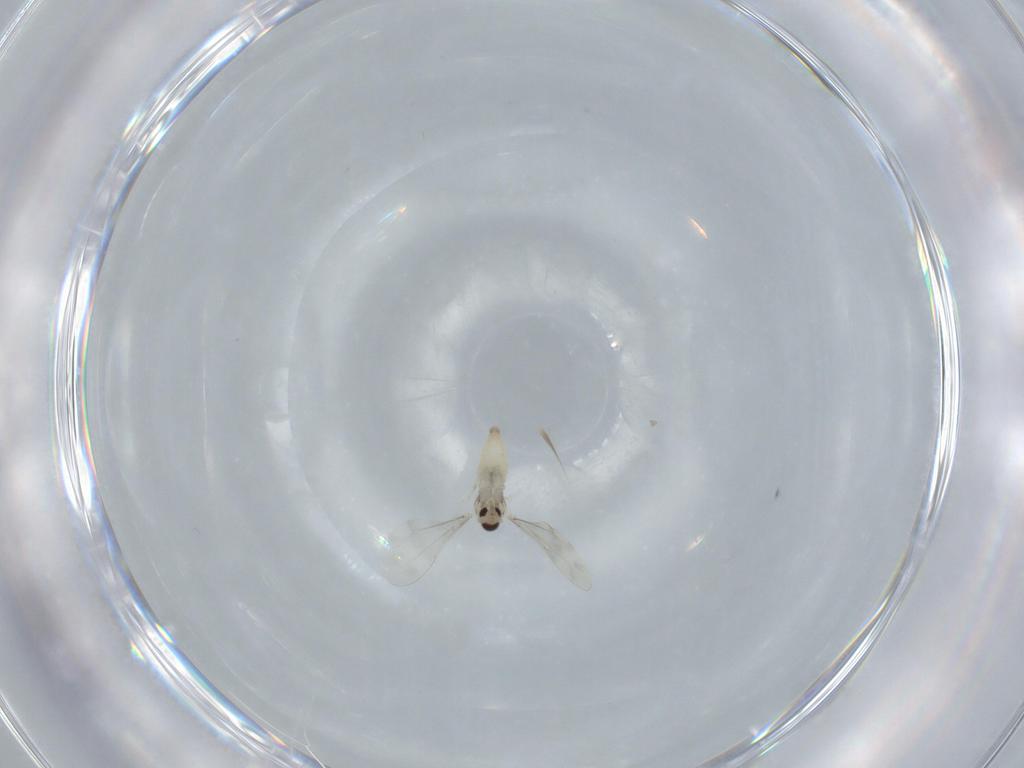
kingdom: Animalia
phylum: Arthropoda
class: Insecta
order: Diptera
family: Cecidomyiidae
